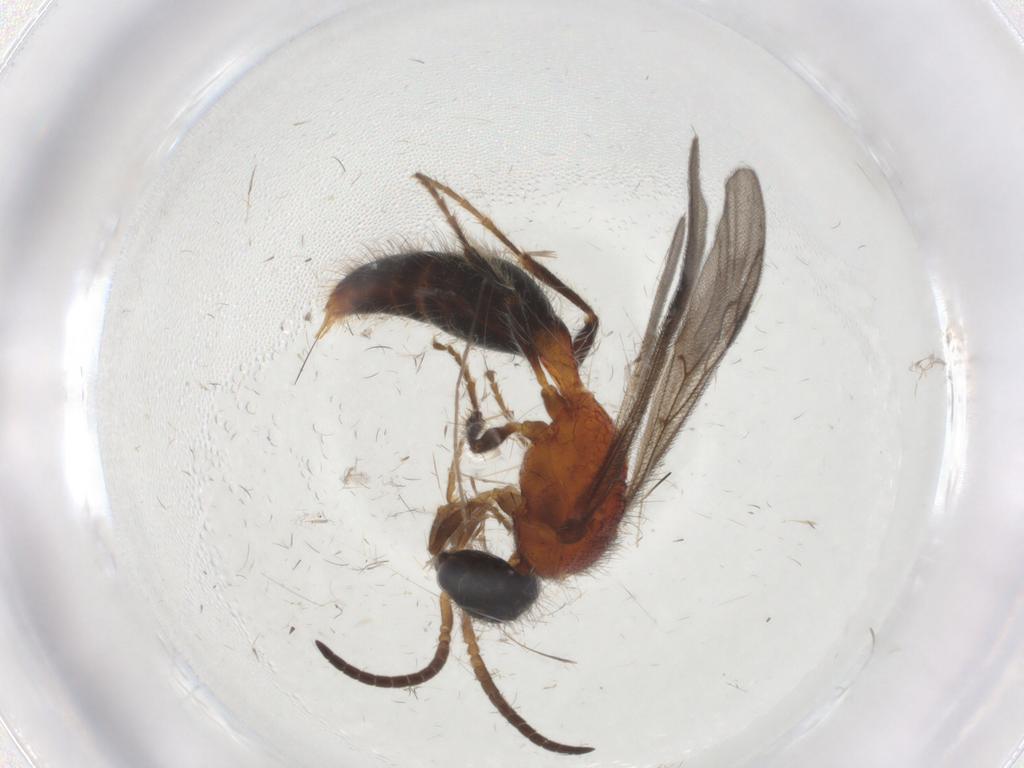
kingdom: Animalia
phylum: Arthropoda
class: Insecta
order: Hymenoptera
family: Mutillidae
